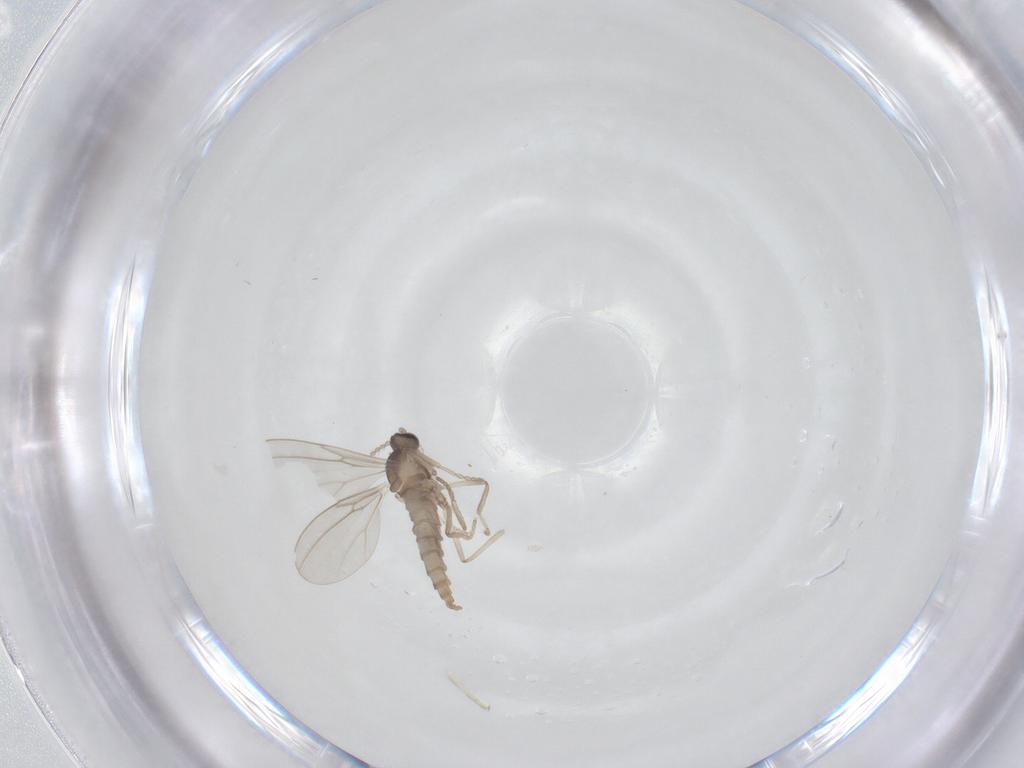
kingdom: Animalia
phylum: Arthropoda
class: Insecta
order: Diptera
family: Cecidomyiidae
